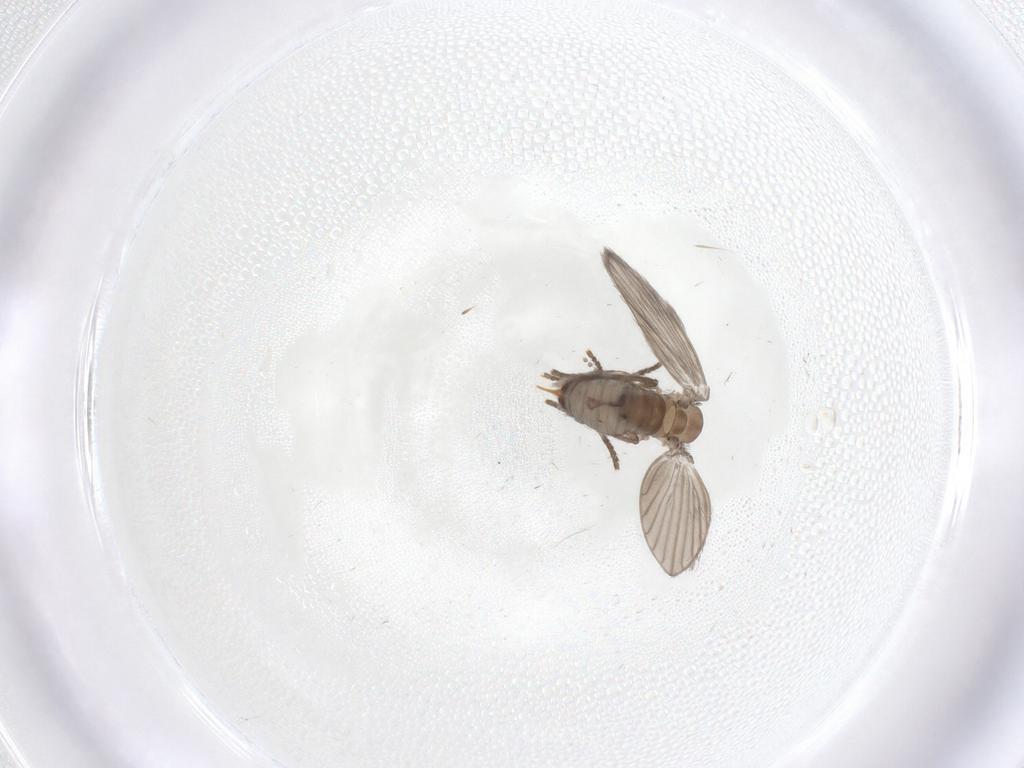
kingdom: Animalia
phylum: Arthropoda
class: Insecta
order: Diptera
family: Psychodidae
